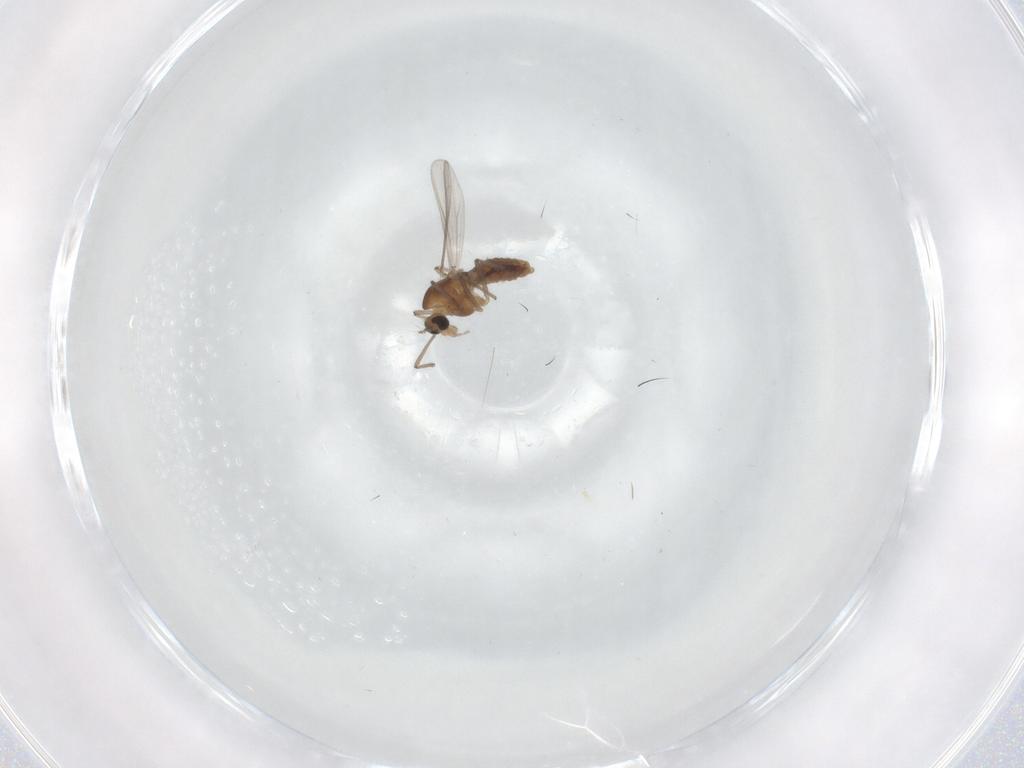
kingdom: Animalia
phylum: Arthropoda
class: Insecta
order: Diptera
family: Chironomidae
